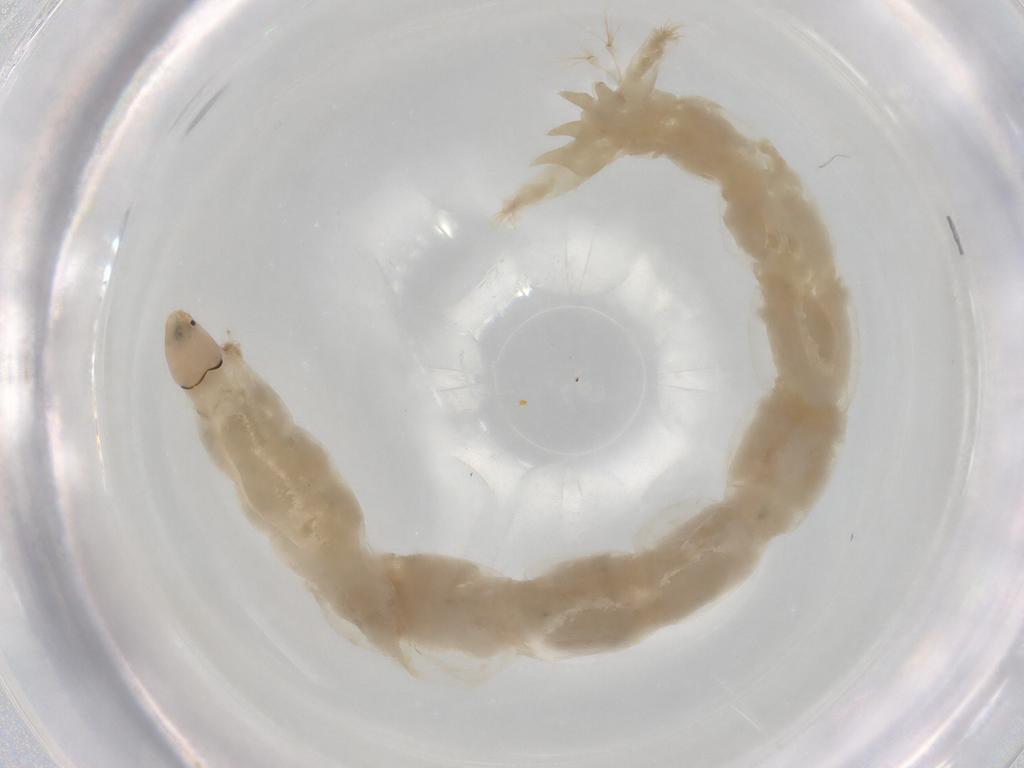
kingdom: Animalia
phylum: Arthropoda
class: Insecta
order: Diptera
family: Chironomidae
